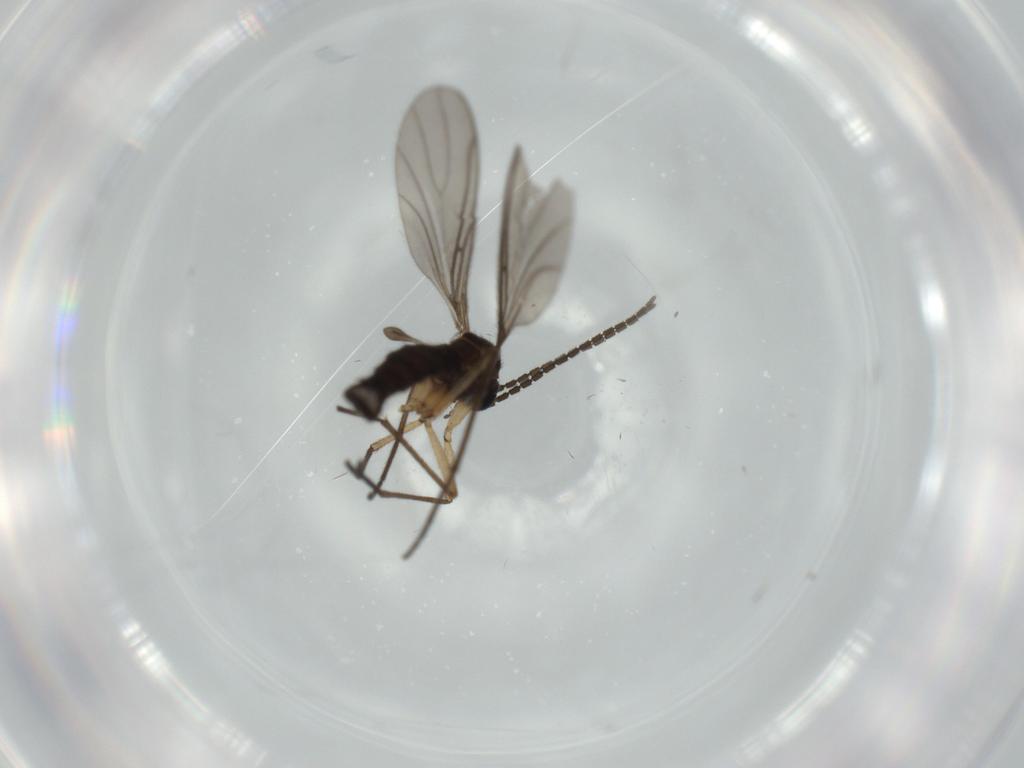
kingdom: Animalia
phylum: Arthropoda
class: Insecta
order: Diptera
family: Sciaridae
